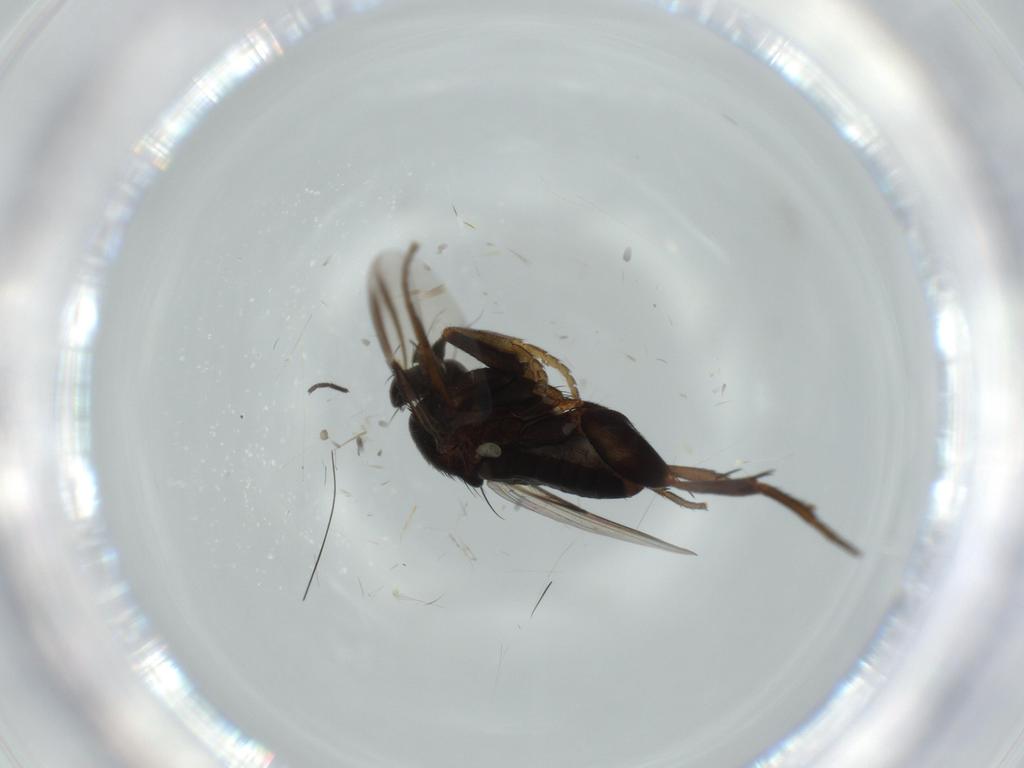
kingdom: Animalia
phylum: Arthropoda
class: Insecta
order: Diptera
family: Phoridae
